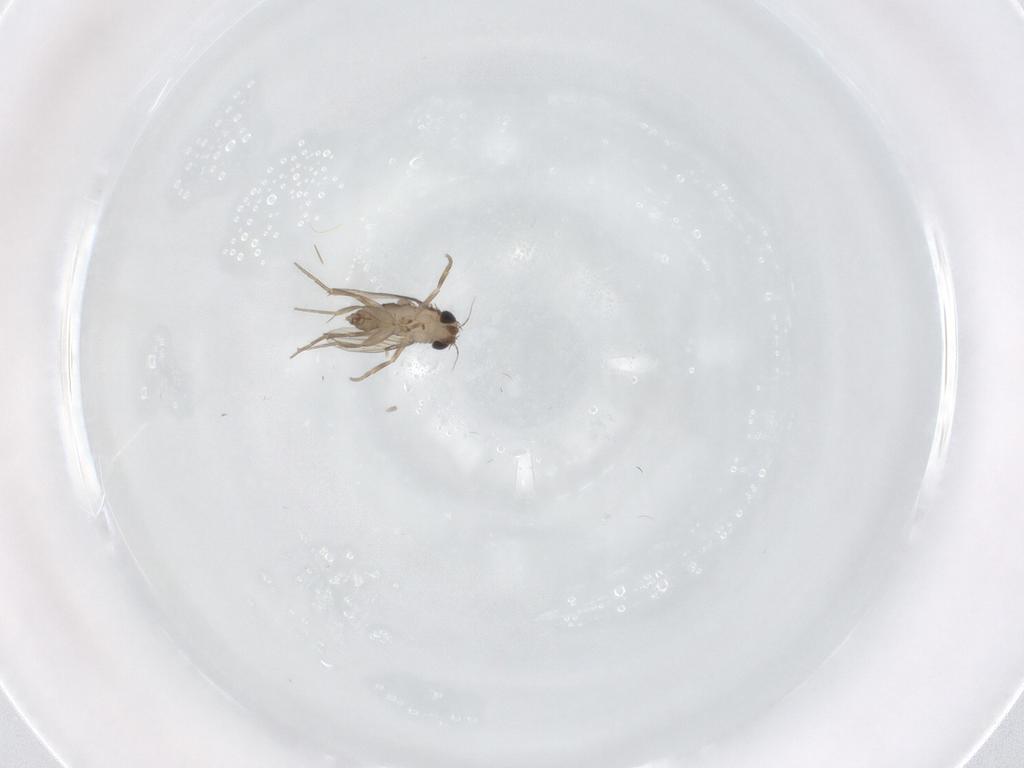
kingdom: Animalia
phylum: Arthropoda
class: Insecta
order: Diptera
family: Phoridae
